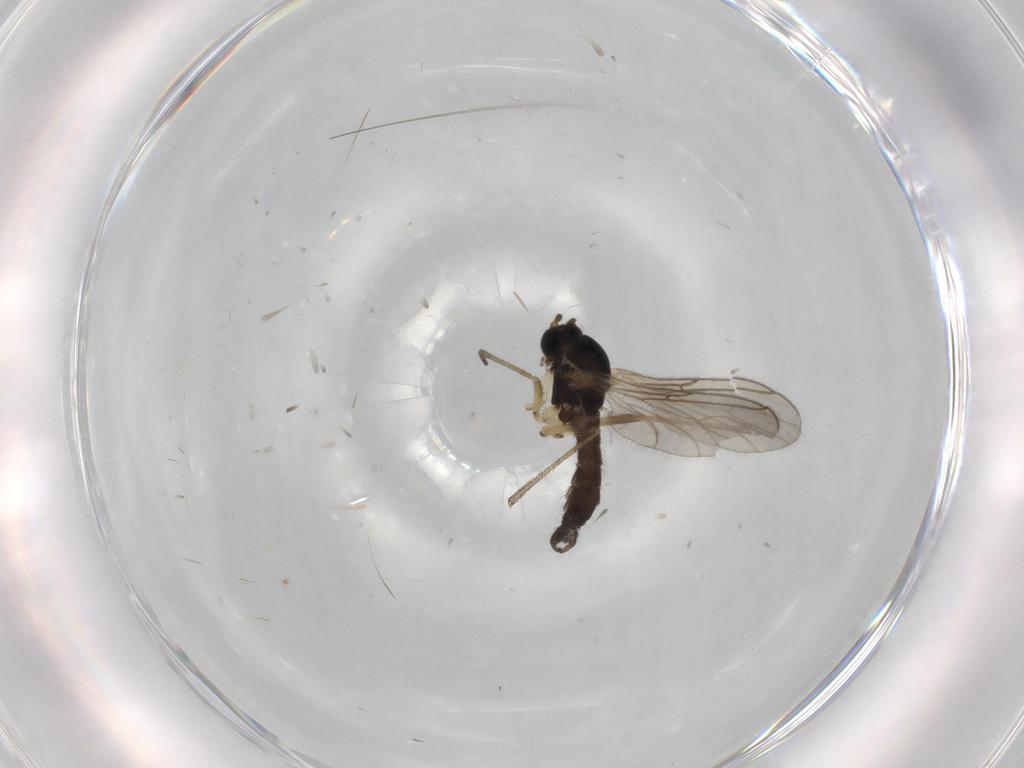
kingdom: Animalia
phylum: Arthropoda
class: Insecta
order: Diptera
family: Sciaridae
